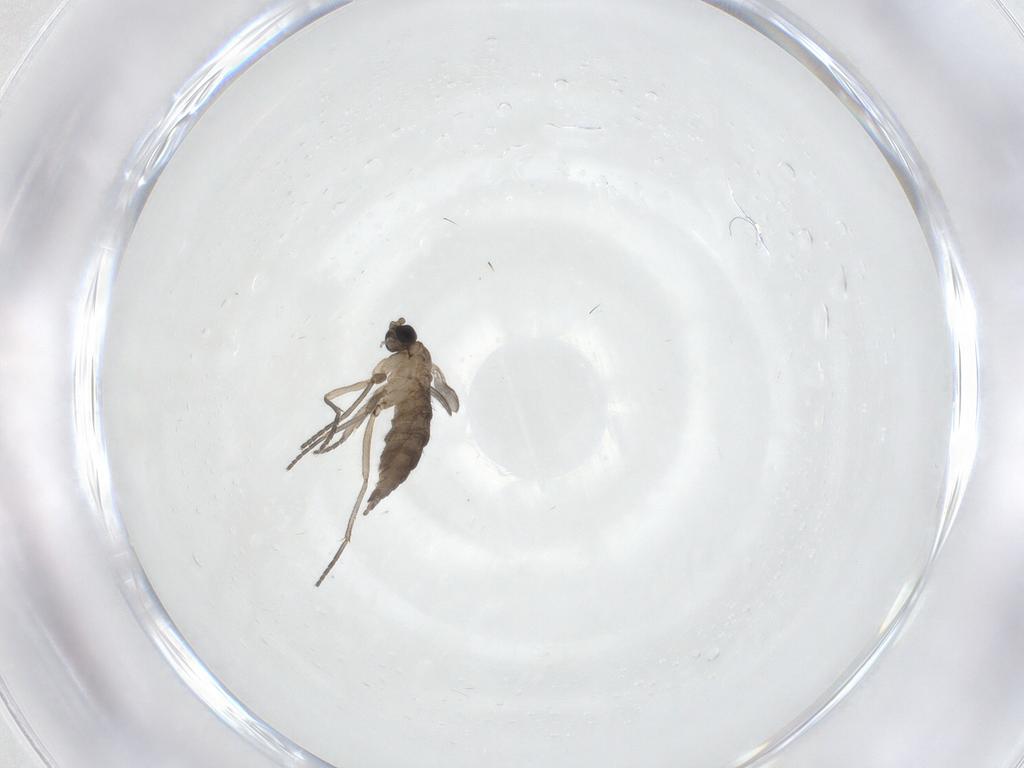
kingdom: Animalia
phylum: Arthropoda
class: Insecta
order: Diptera
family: Sciaridae
